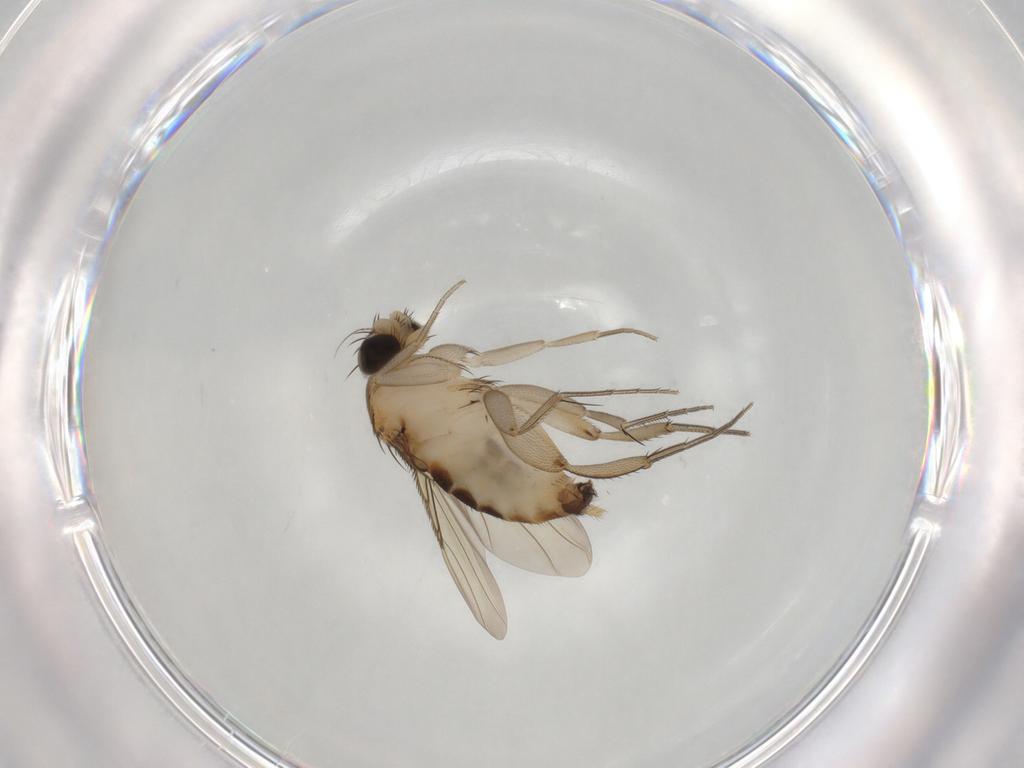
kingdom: Animalia
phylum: Arthropoda
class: Insecta
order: Diptera
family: Phoridae
